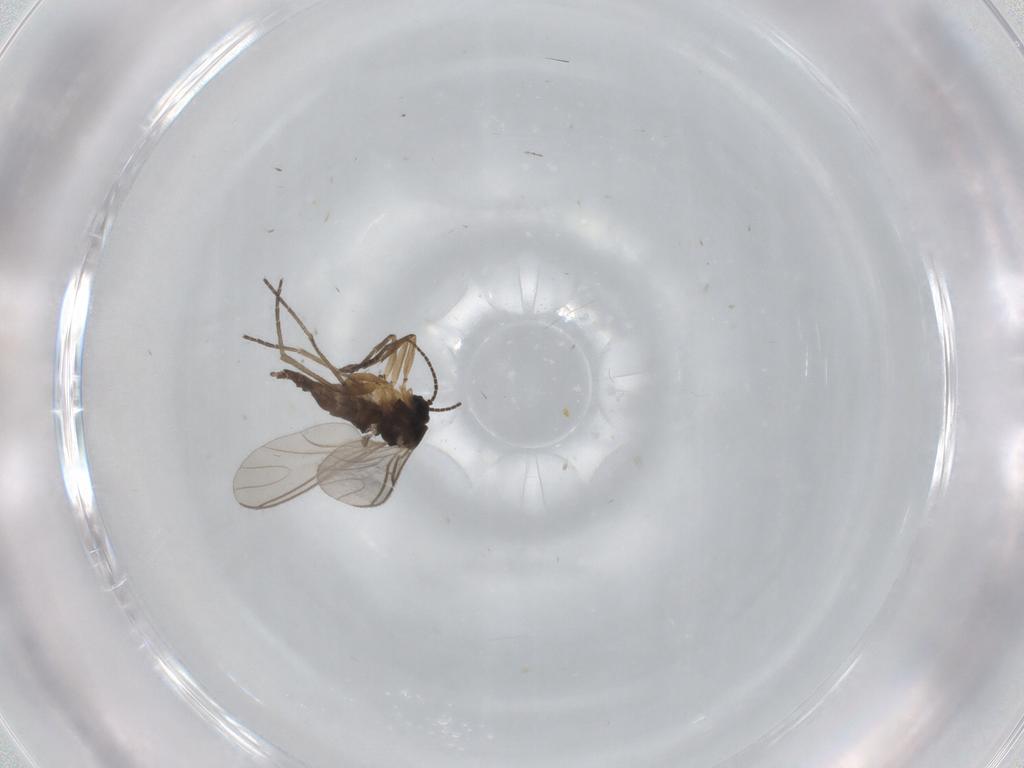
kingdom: Animalia
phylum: Arthropoda
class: Insecta
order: Diptera
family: Ceratopogonidae
